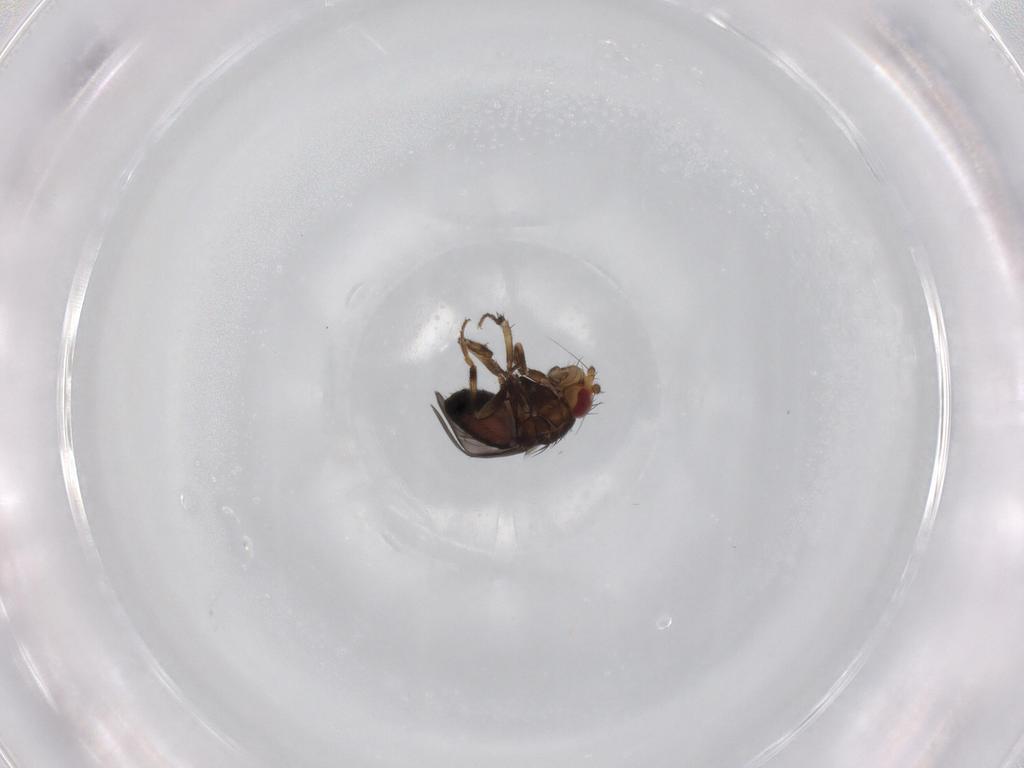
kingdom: Animalia
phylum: Arthropoda
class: Insecta
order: Diptera
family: Sphaeroceridae
